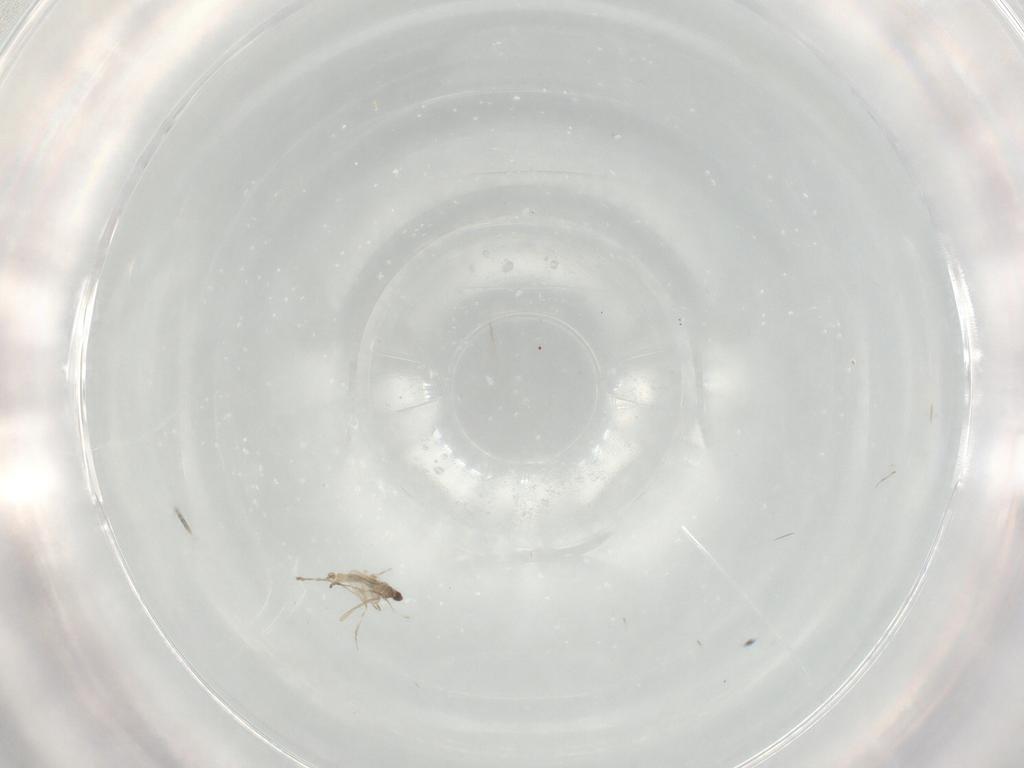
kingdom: Animalia
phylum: Arthropoda
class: Insecta
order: Diptera
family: Cecidomyiidae
